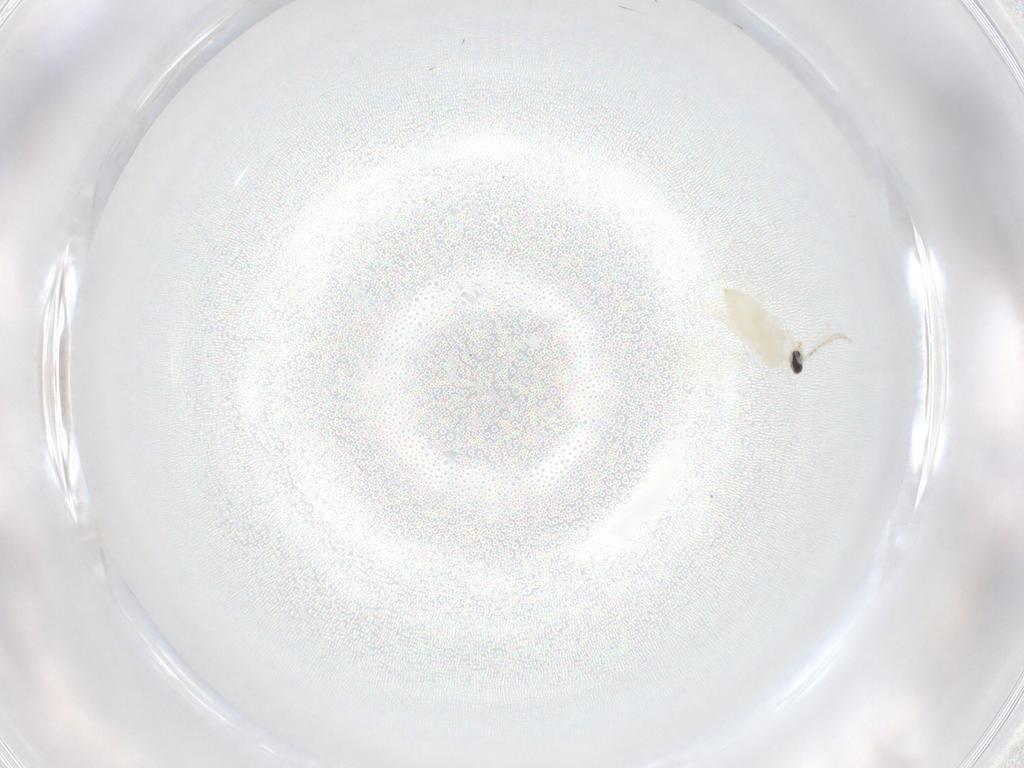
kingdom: Animalia
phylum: Arthropoda
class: Insecta
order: Diptera
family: Cecidomyiidae
